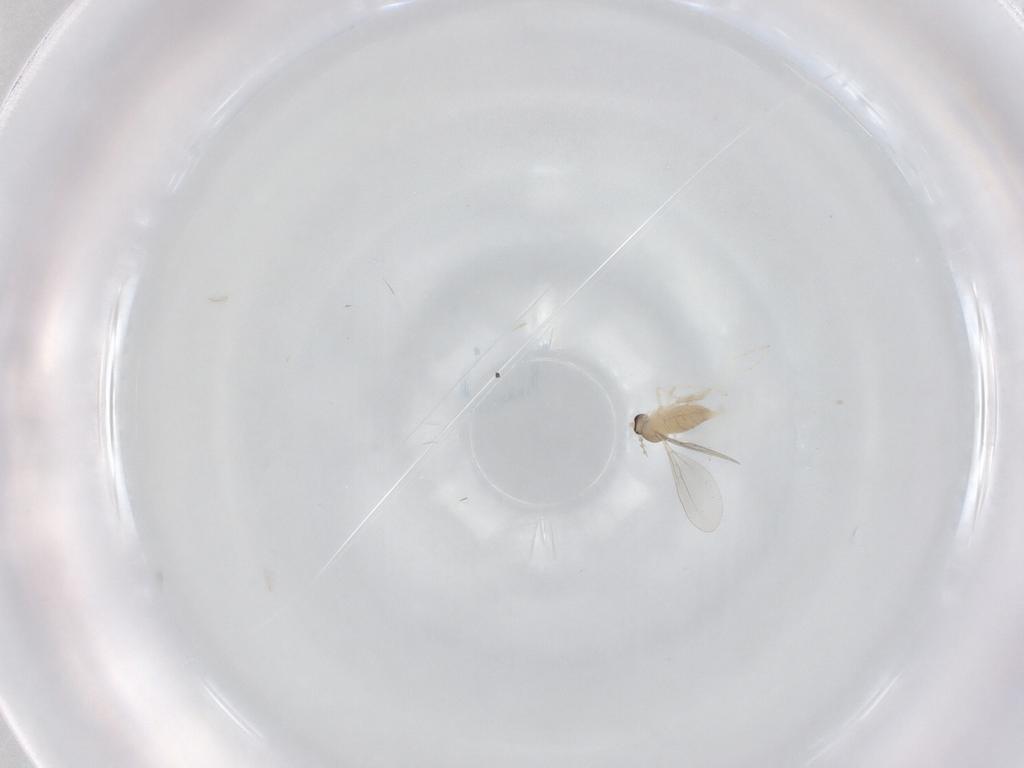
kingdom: Animalia
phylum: Arthropoda
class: Insecta
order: Diptera
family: Cecidomyiidae
